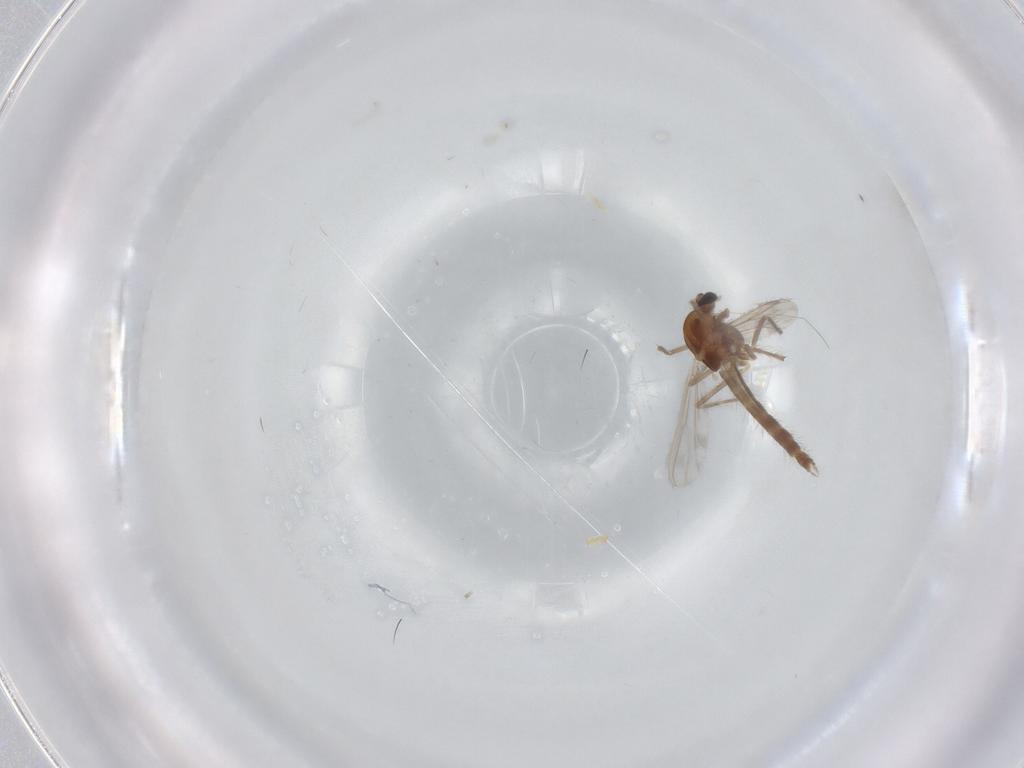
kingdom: Animalia
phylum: Arthropoda
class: Insecta
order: Diptera
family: Chironomidae
